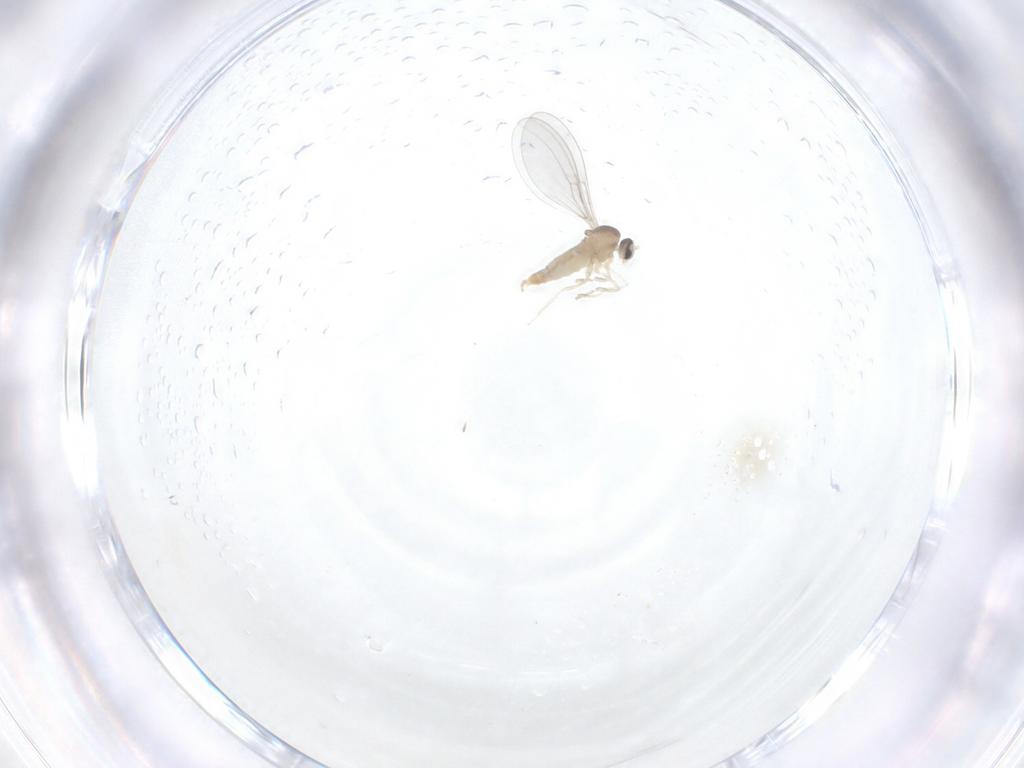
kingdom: Animalia
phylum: Arthropoda
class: Insecta
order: Diptera
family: Cecidomyiidae
